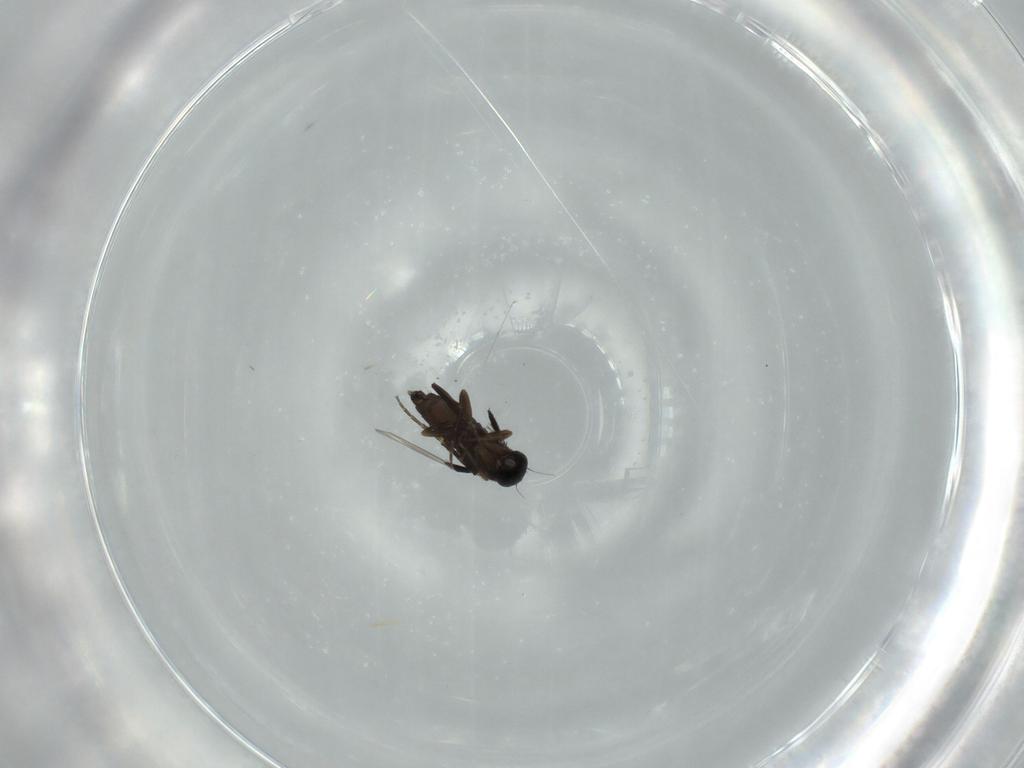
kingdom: Animalia
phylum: Arthropoda
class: Insecta
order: Diptera
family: Phoridae
